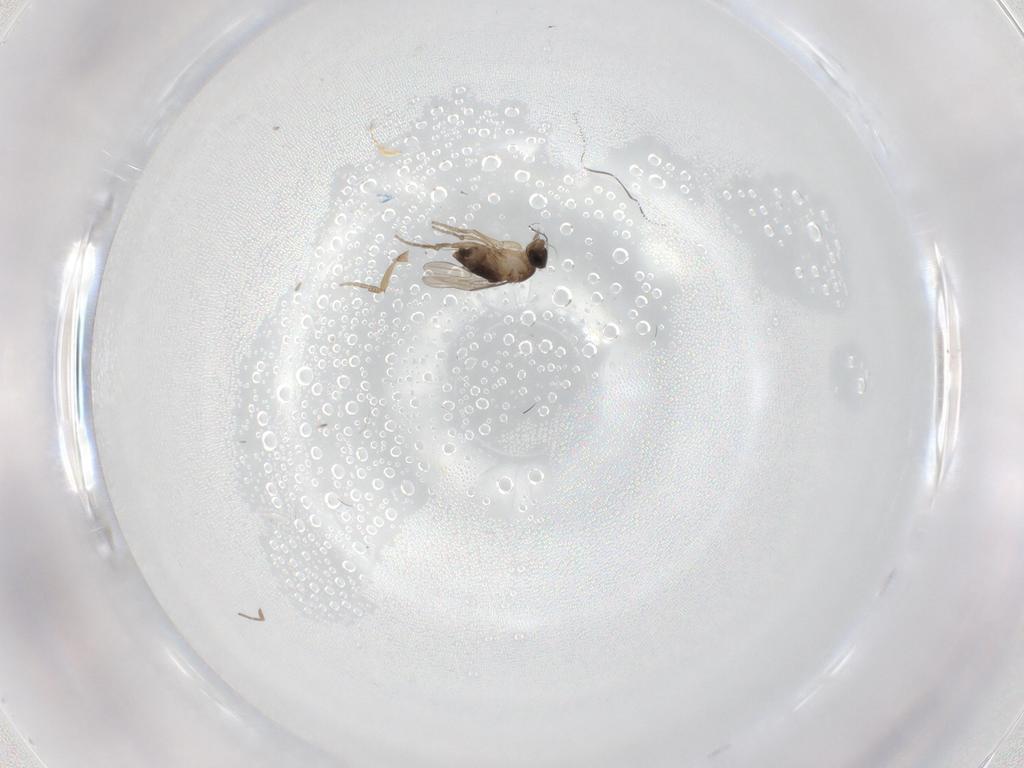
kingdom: Animalia
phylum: Arthropoda
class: Insecta
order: Diptera
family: Phoridae
